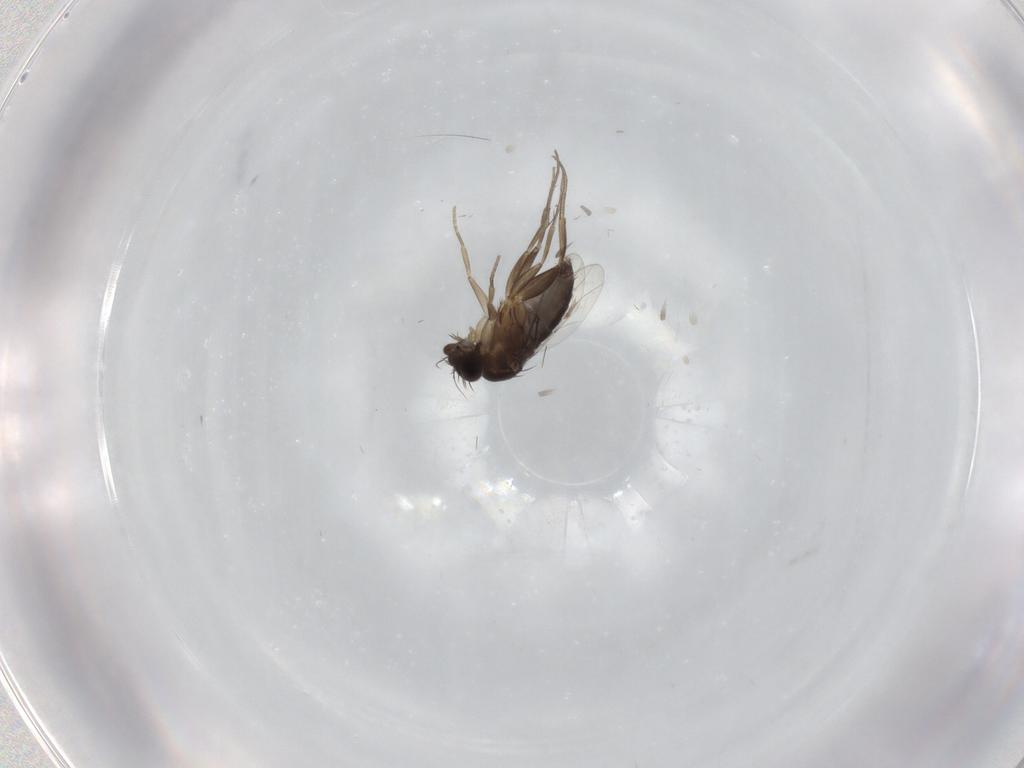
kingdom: Animalia
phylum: Arthropoda
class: Insecta
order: Diptera
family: Phoridae
